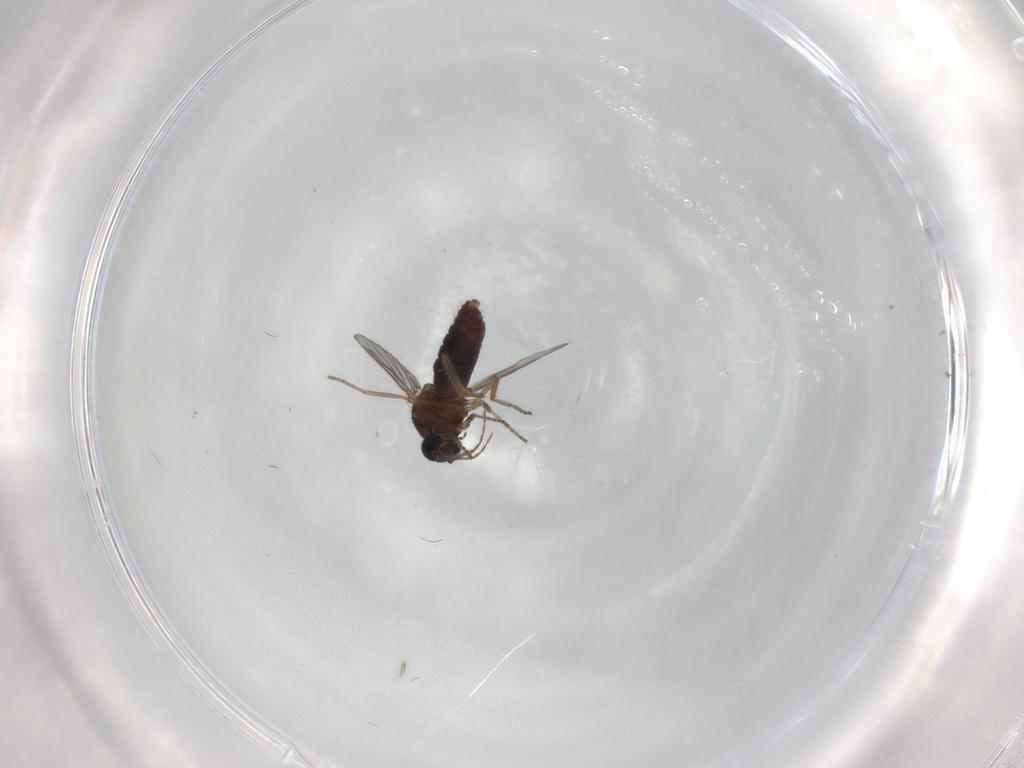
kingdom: Animalia
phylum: Arthropoda
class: Insecta
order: Diptera
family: Ceratopogonidae
